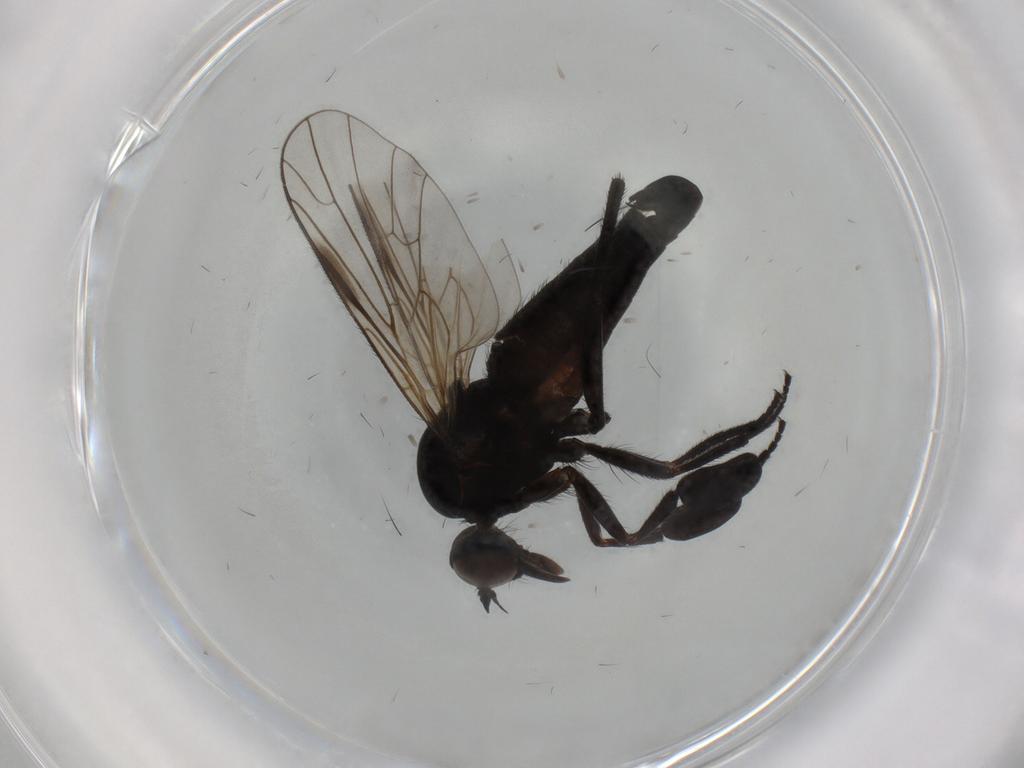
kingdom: Animalia
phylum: Arthropoda
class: Insecta
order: Diptera
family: Empididae
